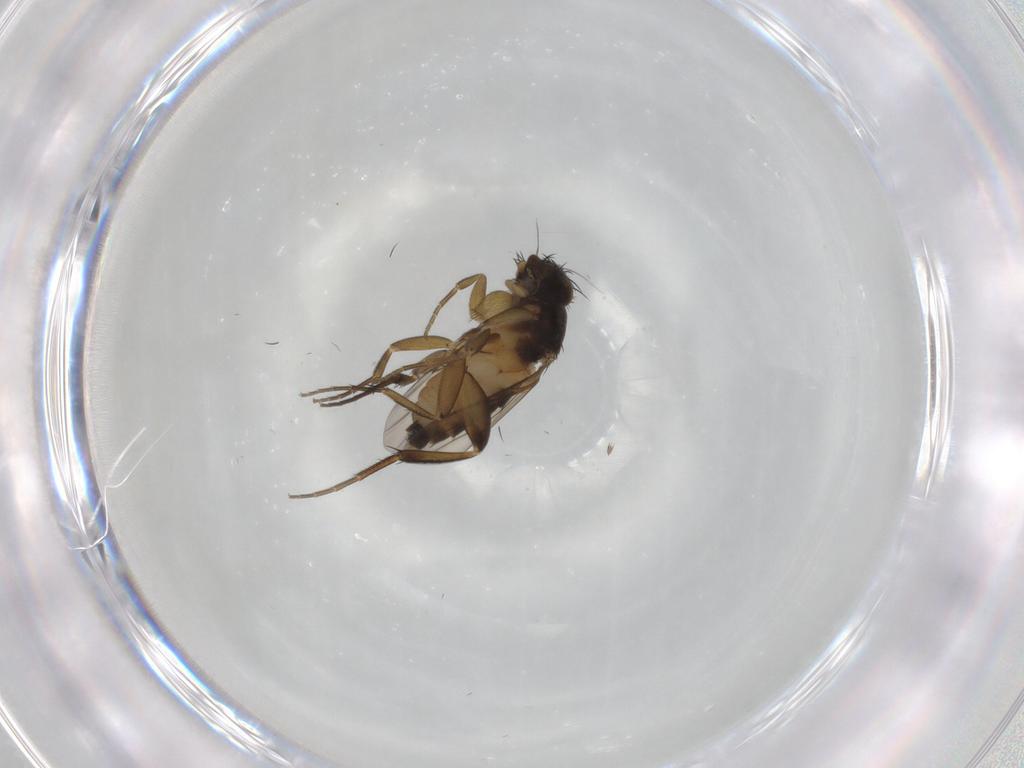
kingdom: Animalia
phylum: Arthropoda
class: Insecta
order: Diptera
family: Phoridae
